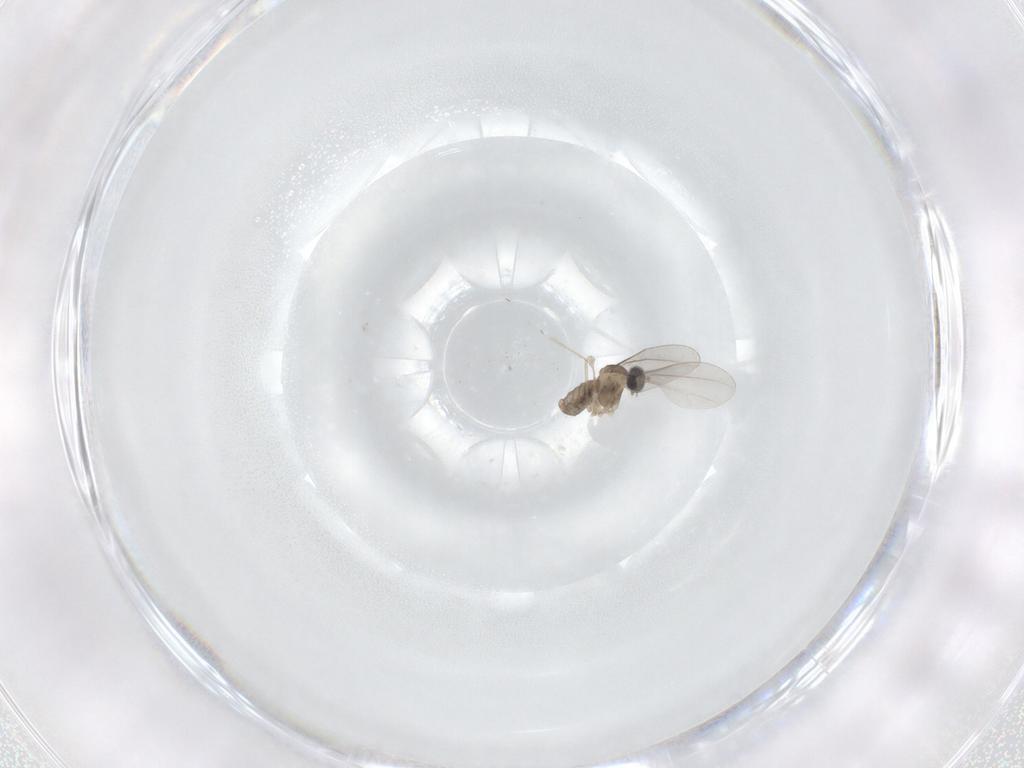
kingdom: Animalia
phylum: Arthropoda
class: Insecta
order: Diptera
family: Cecidomyiidae
